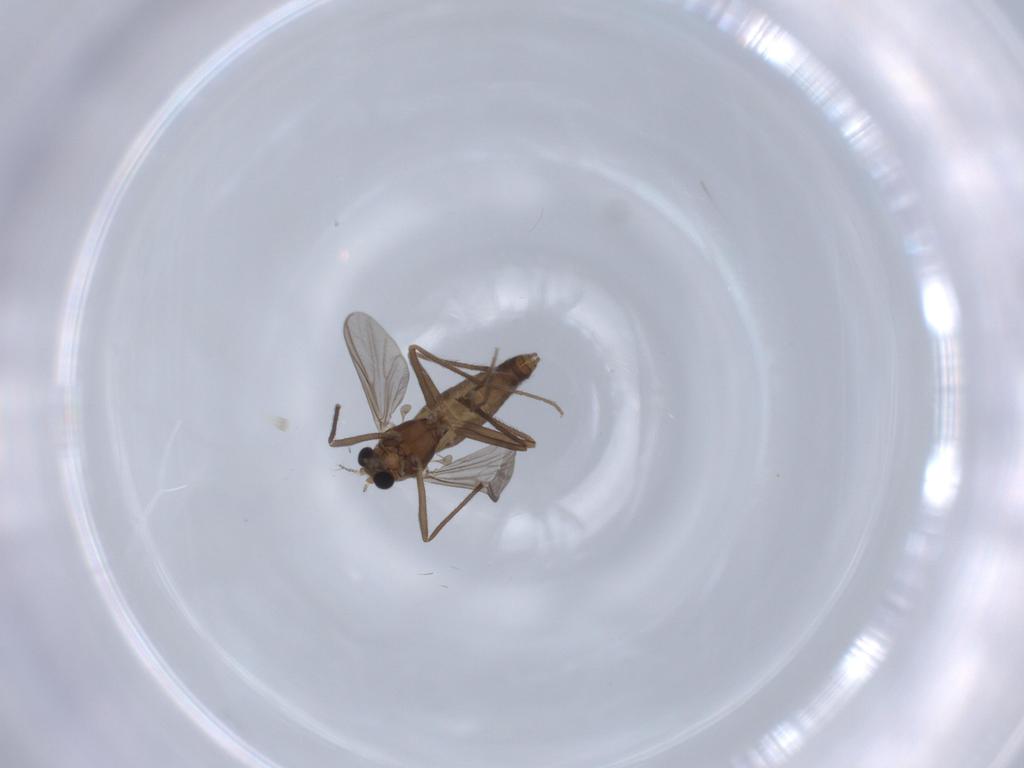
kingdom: Animalia
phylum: Arthropoda
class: Insecta
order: Diptera
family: Chironomidae
